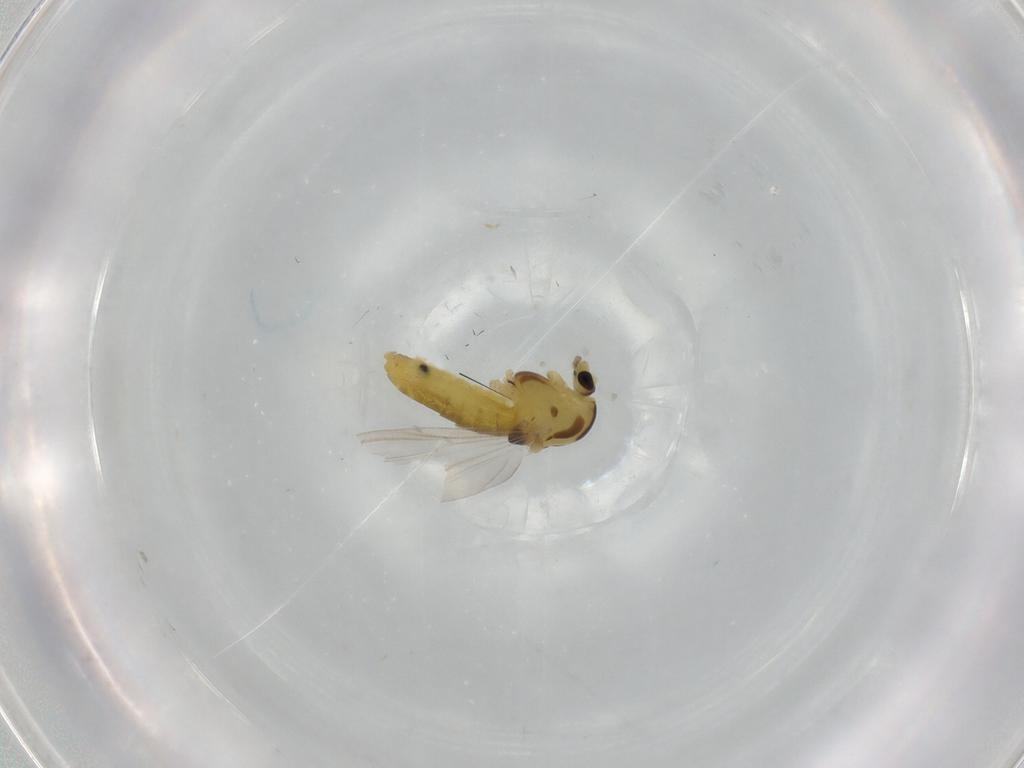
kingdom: Animalia
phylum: Arthropoda
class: Insecta
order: Diptera
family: Chironomidae
